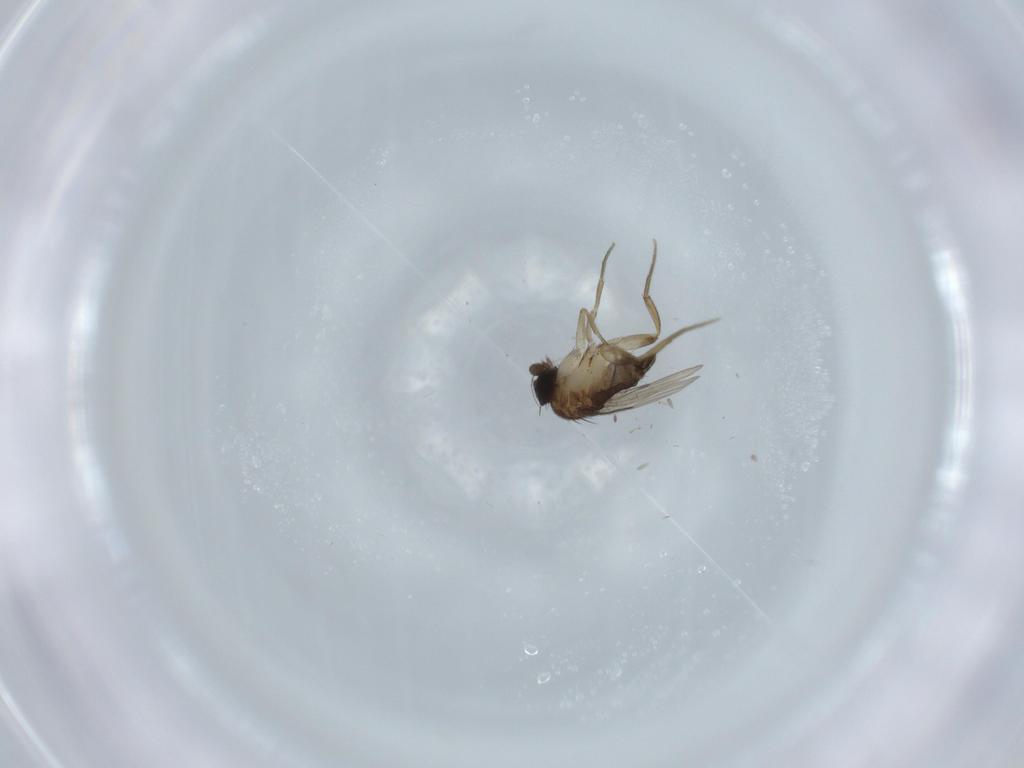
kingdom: Animalia
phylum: Arthropoda
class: Insecta
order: Diptera
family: Phoridae
